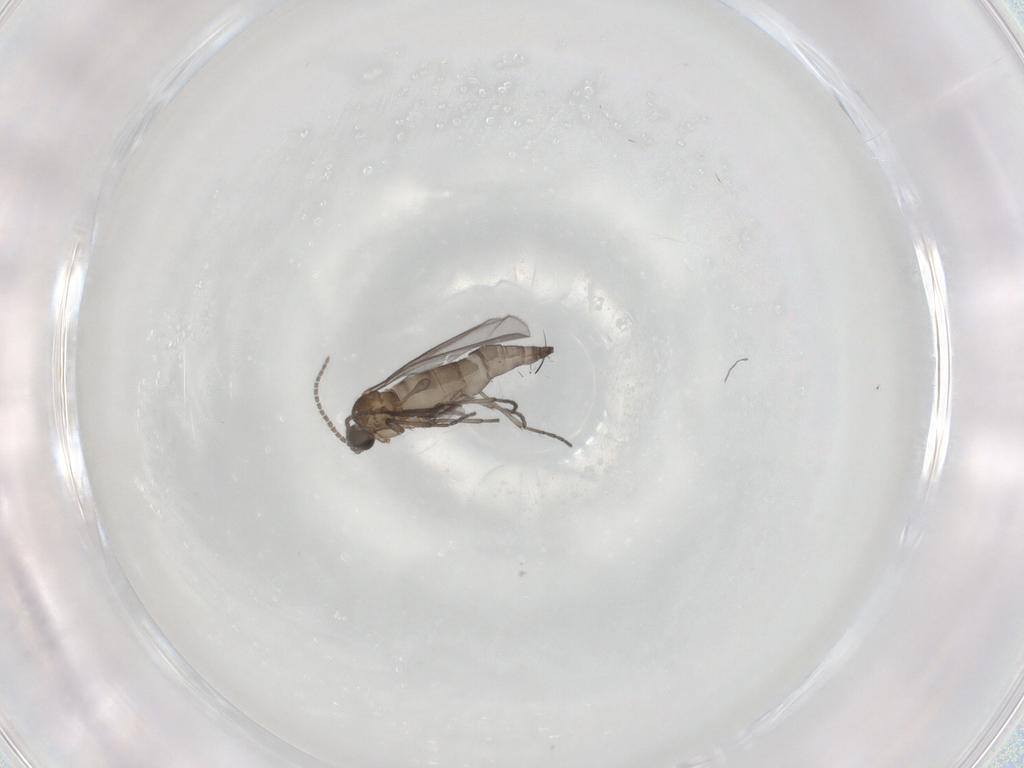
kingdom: Animalia
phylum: Arthropoda
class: Insecta
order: Diptera
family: Sciaridae
